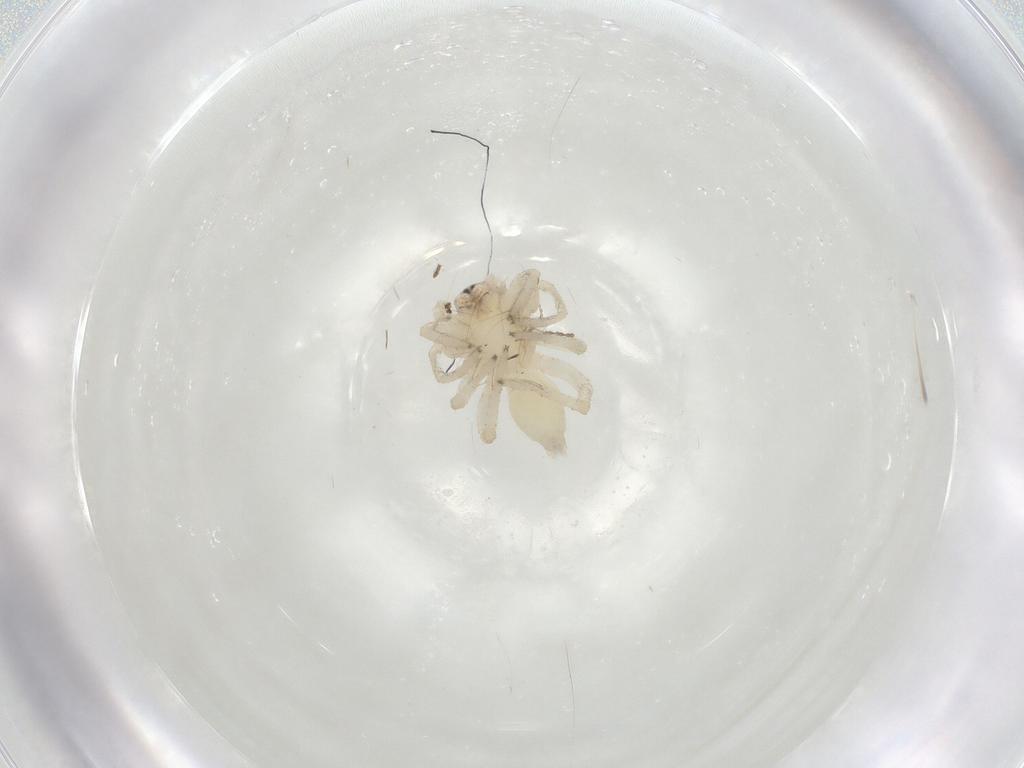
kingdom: Animalia
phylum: Arthropoda
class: Arachnida
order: Araneae
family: Clubionidae
